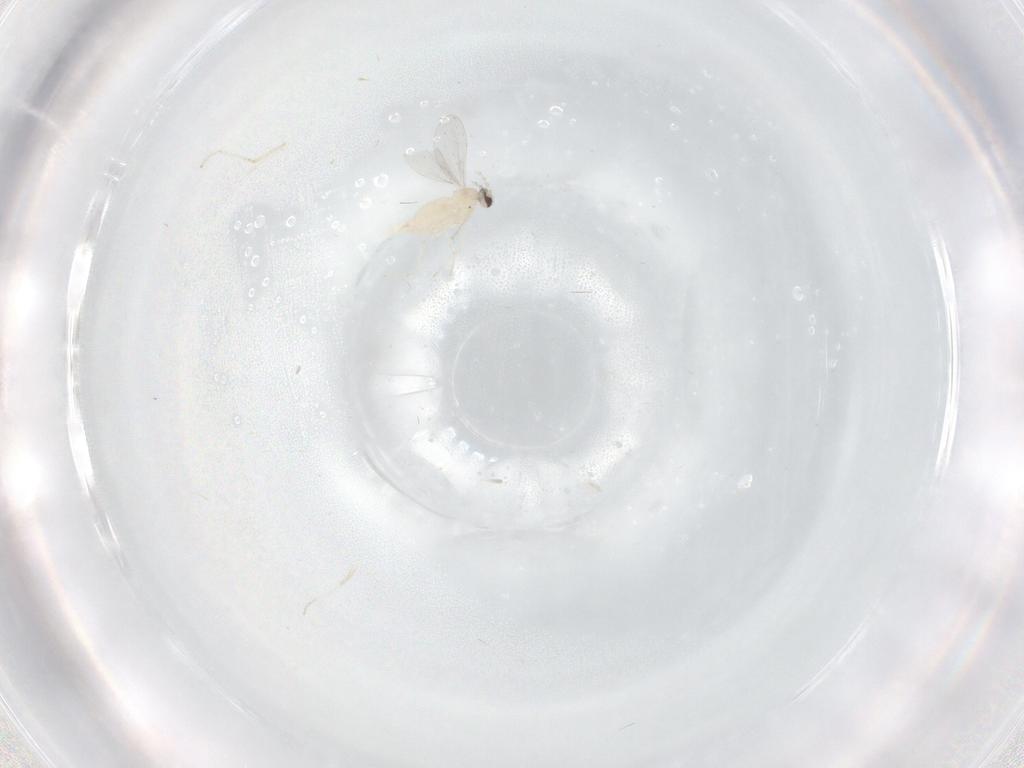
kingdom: Animalia
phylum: Arthropoda
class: Insecta
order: Diptera
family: Cecidomyiidae
